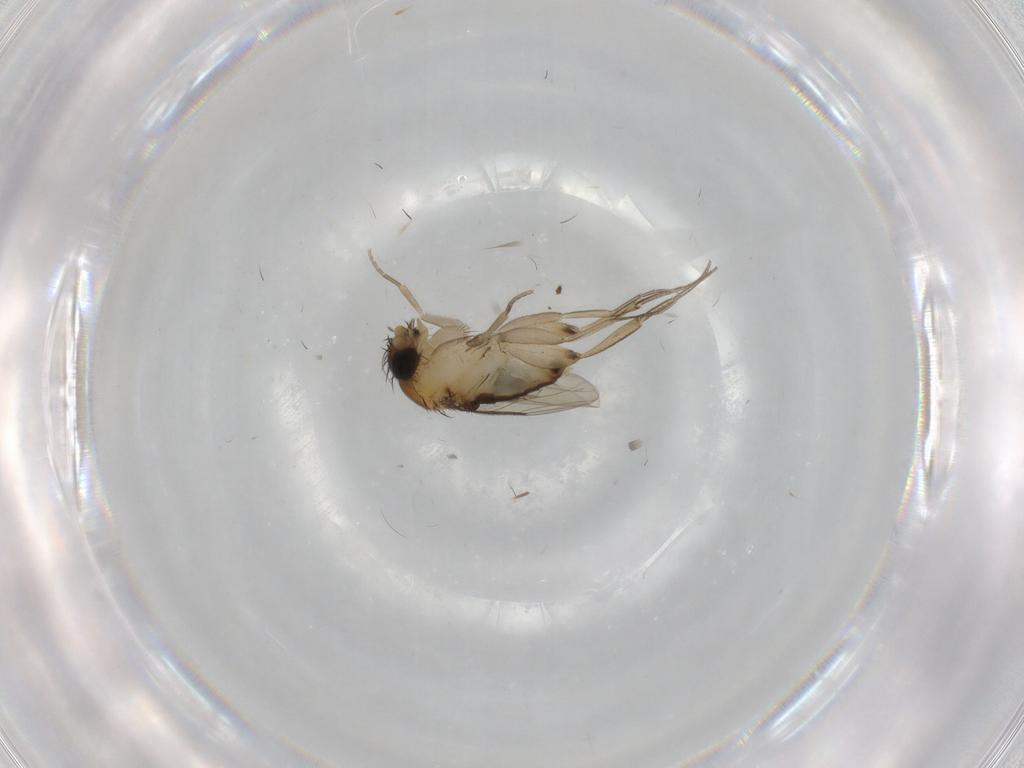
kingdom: Animalia
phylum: Arthropoda
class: Insecta
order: Diptera
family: Phoridae
